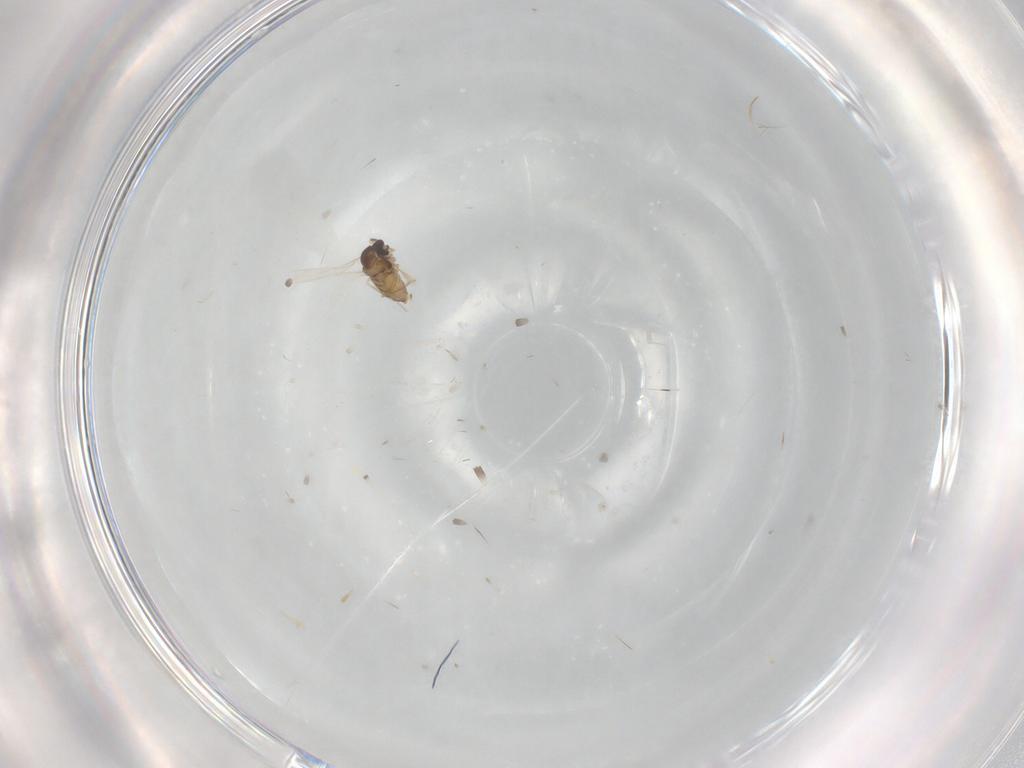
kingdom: Animalia
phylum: Arthropoda
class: Insecta
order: Diptera
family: Cecidomyiidae
